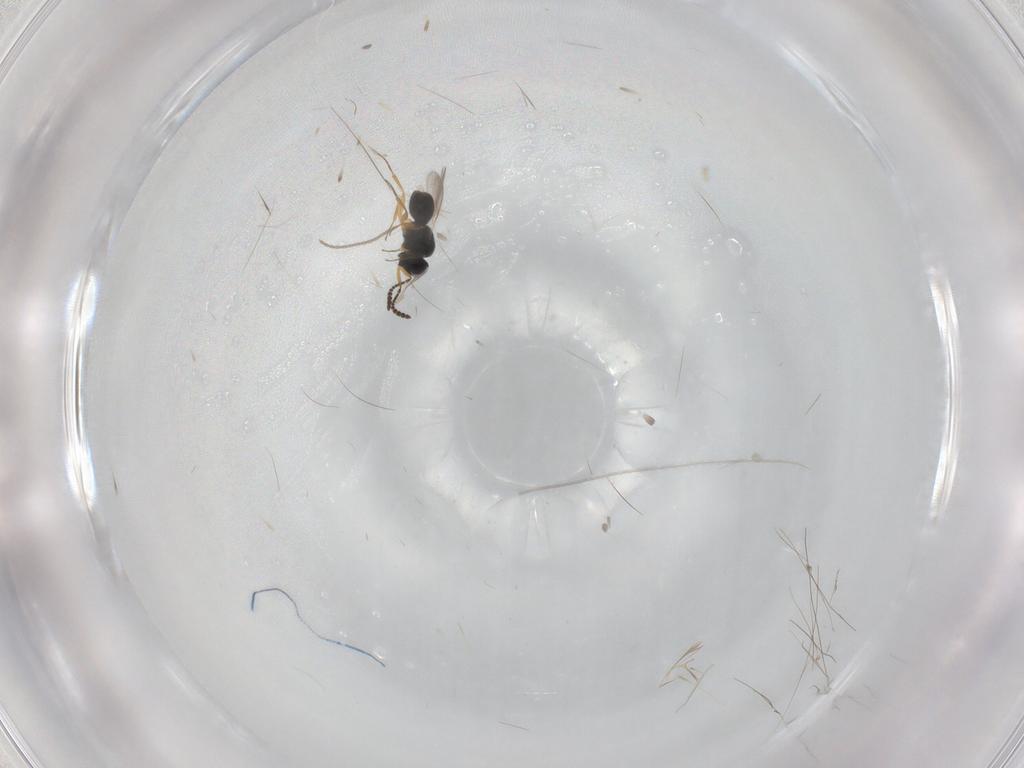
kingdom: Animalia
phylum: Arthropoda
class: Insecta
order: Hymenoptera
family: Scelionidae
